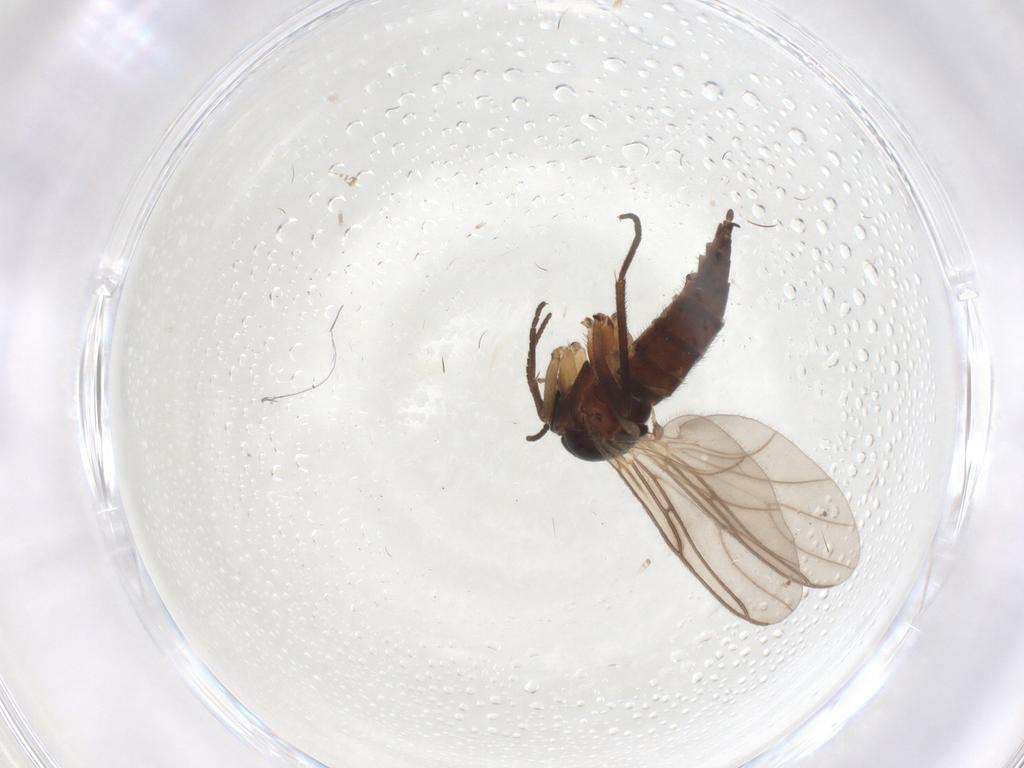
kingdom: Animalia
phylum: Arthropoda
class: Insecta
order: Diptera
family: Sciaridae
